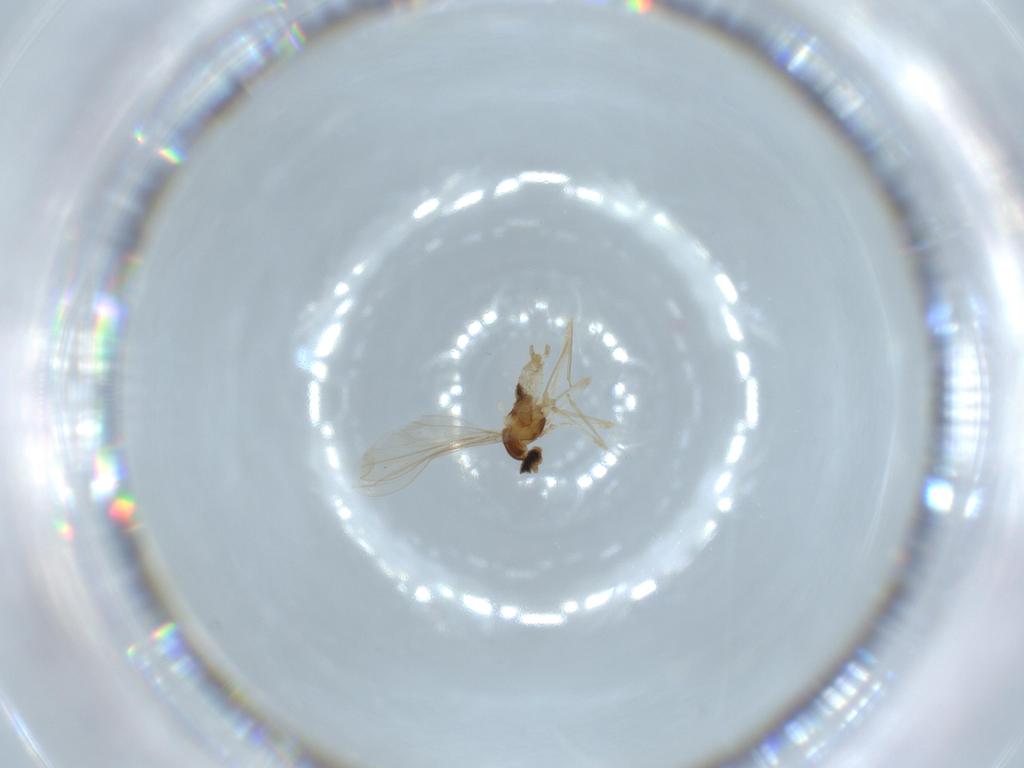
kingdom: Animalia
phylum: Arthropoda
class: Insecta
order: Diptera
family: Cecidomyiidae
